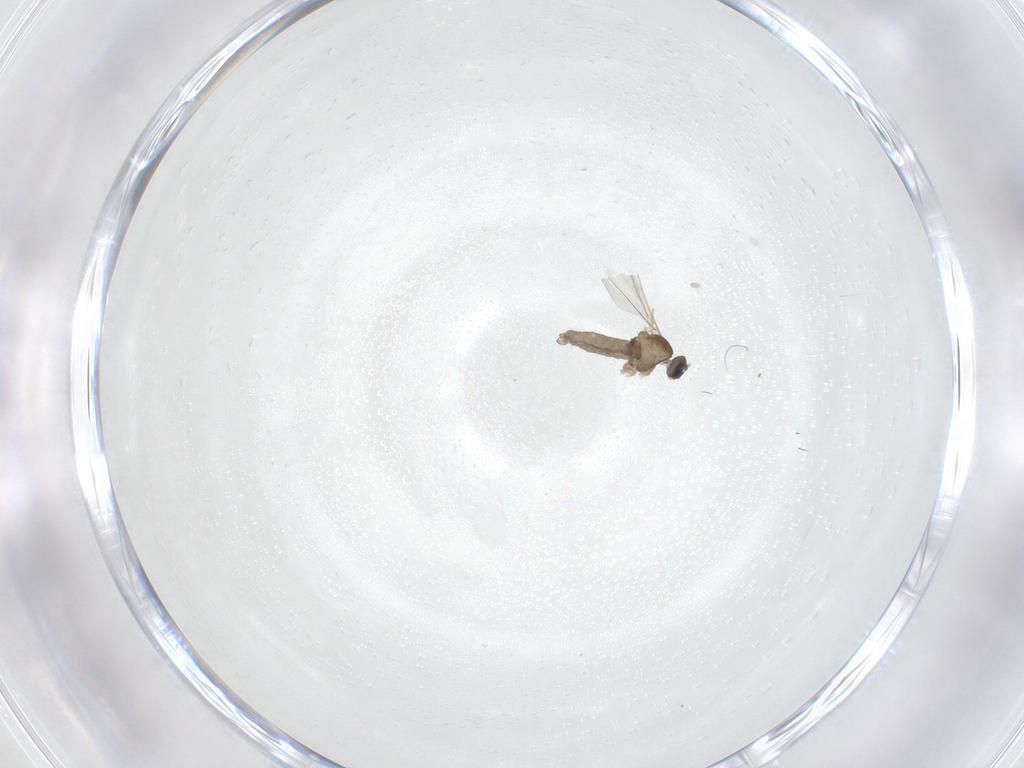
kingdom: Animalia
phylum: Arthropoda
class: Insecta
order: Diptera
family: Cecidomyiidae
